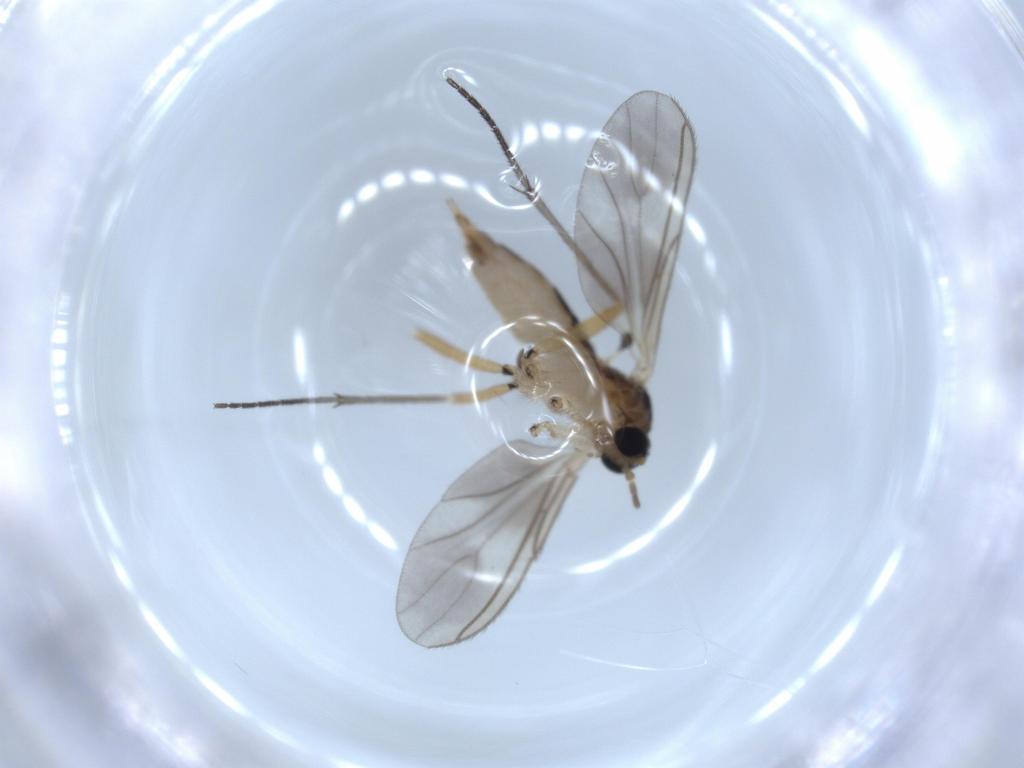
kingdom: Animalia
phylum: Arthropoda
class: Insecta
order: Diptera
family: Sciaridae
